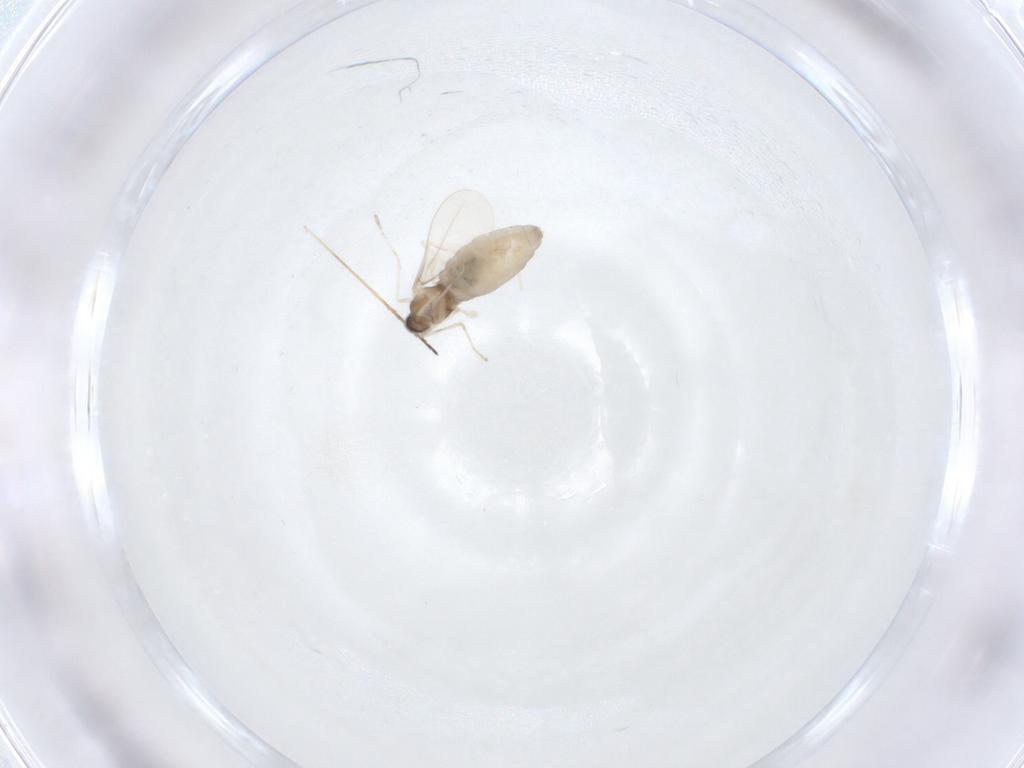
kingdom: Animalia
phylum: Arthropoda
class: Insecta
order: Diptera
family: Cecidomyiidae
